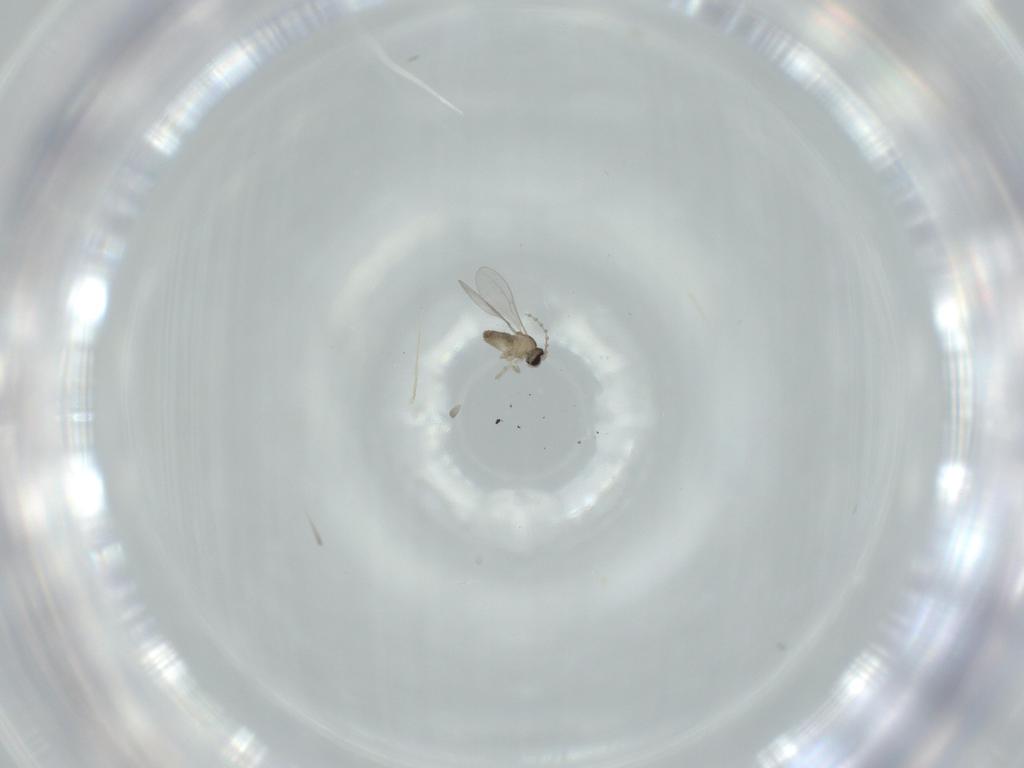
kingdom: Animalia
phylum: Arthropoda
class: Insecta
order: Diptera
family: Cecidomyiidae
